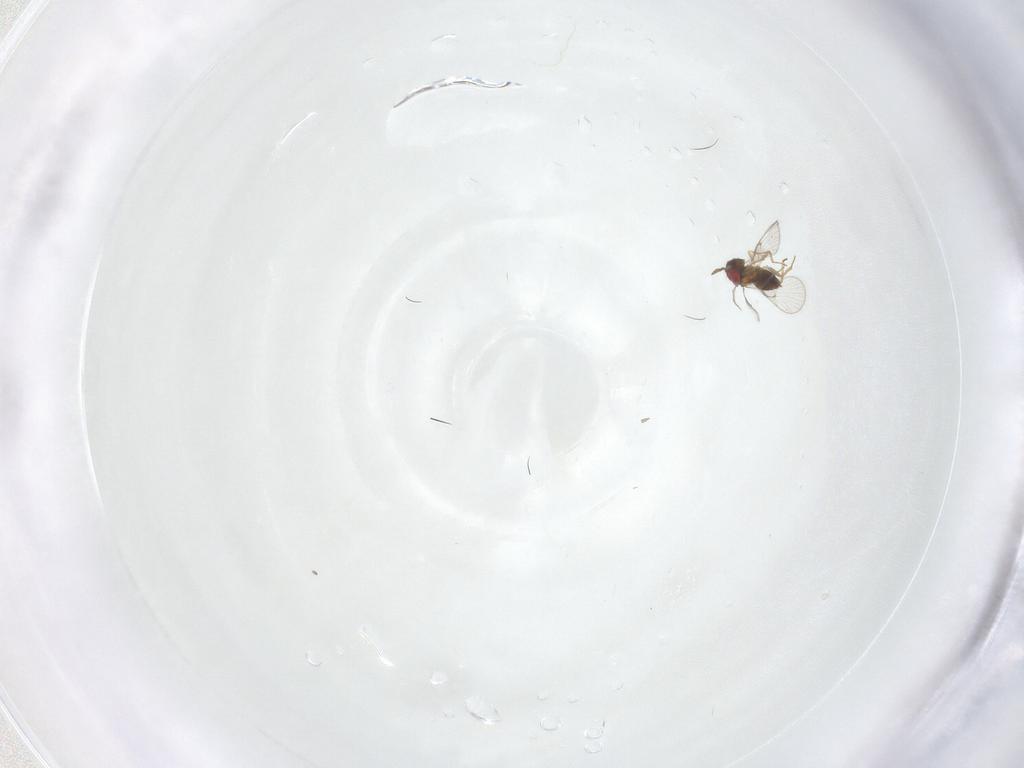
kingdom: Animalia
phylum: Arthropoda
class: Insecta
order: Hymenoptera
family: Trichogrammatidae
